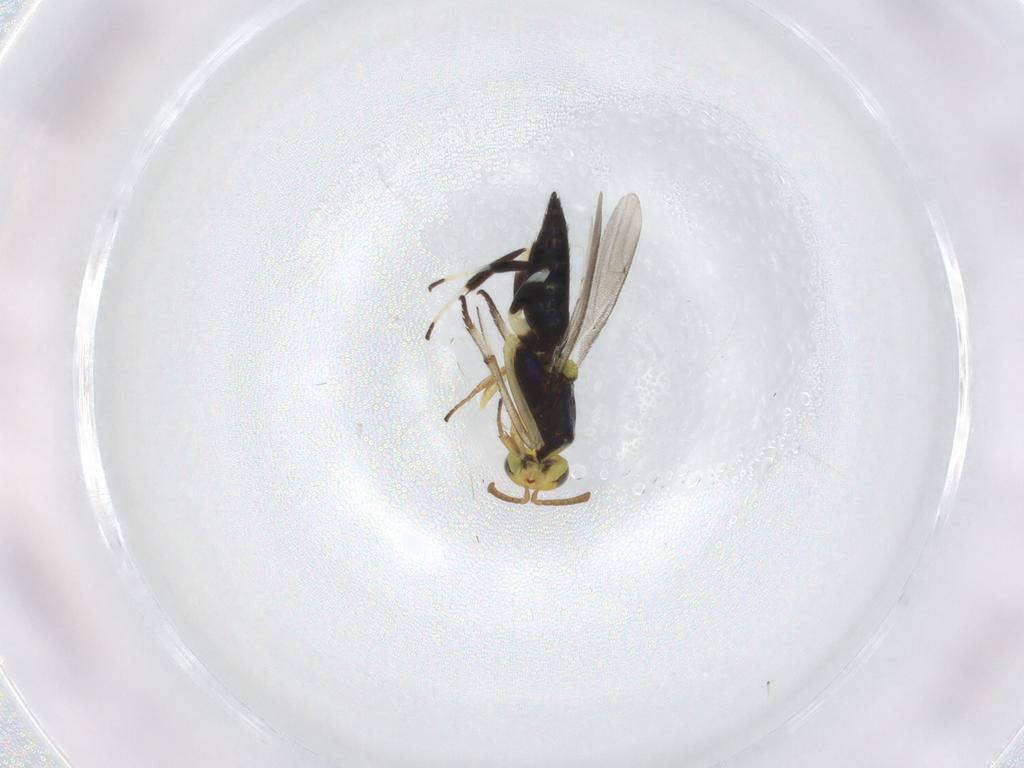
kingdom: Animalia
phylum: Arthropoda
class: Insecta
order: Hymenoptera
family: Eupelmidae
